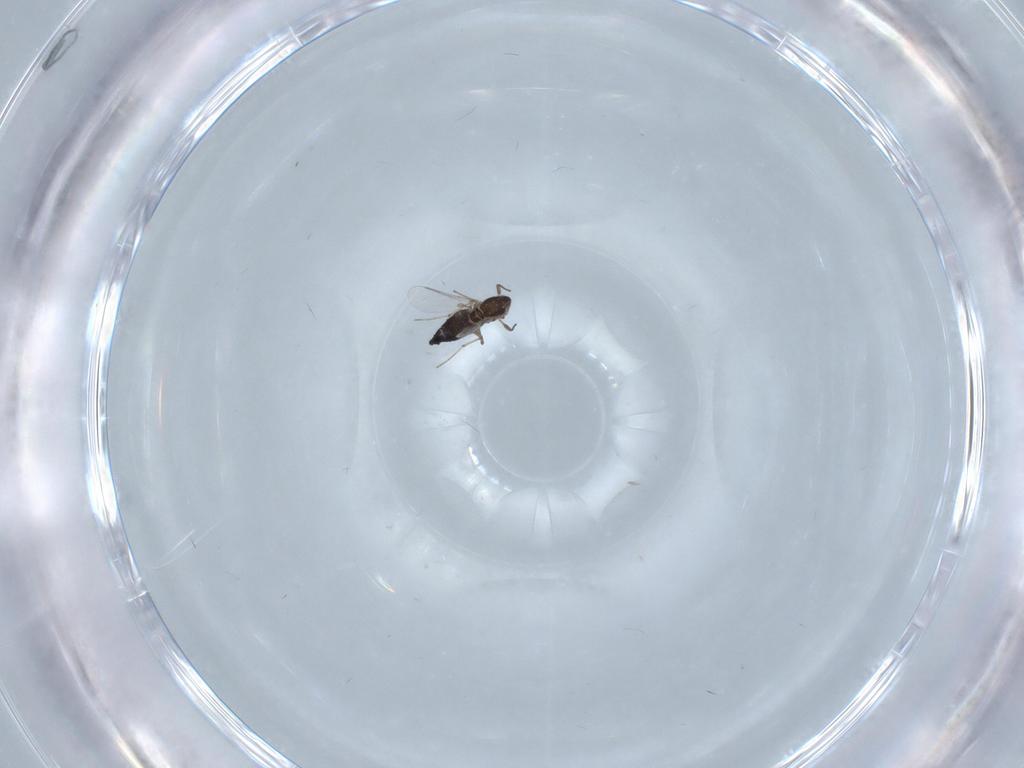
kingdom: Animalia
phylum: Arthropoda
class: Insecta
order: Diptera
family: Chironomidae
